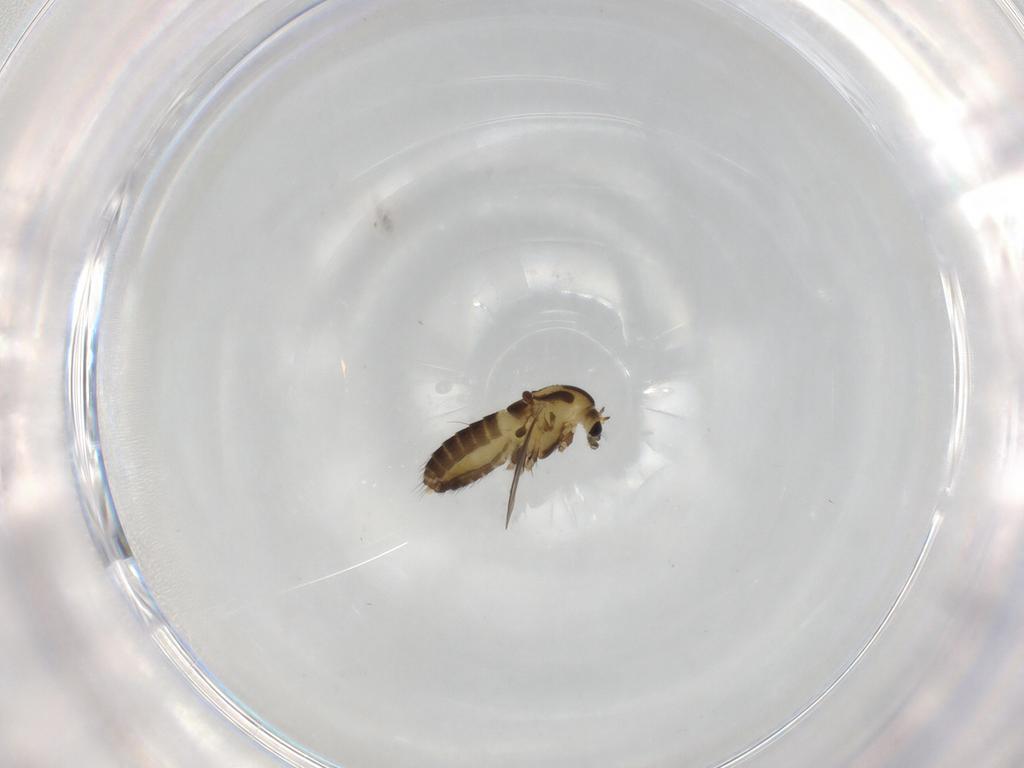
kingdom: Animalia
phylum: Arthropoda
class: Insecta
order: Diptera
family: Chironomidae
